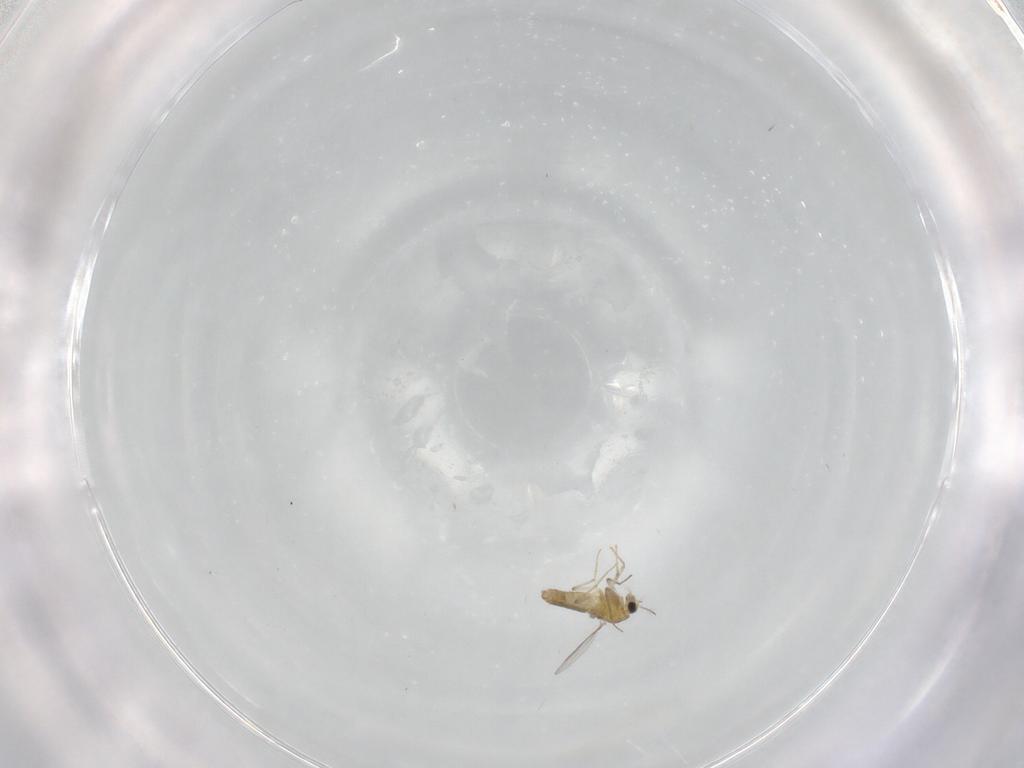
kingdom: Animalia
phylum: Arthropoda
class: Insecta
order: Diptera
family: Chironomidae
